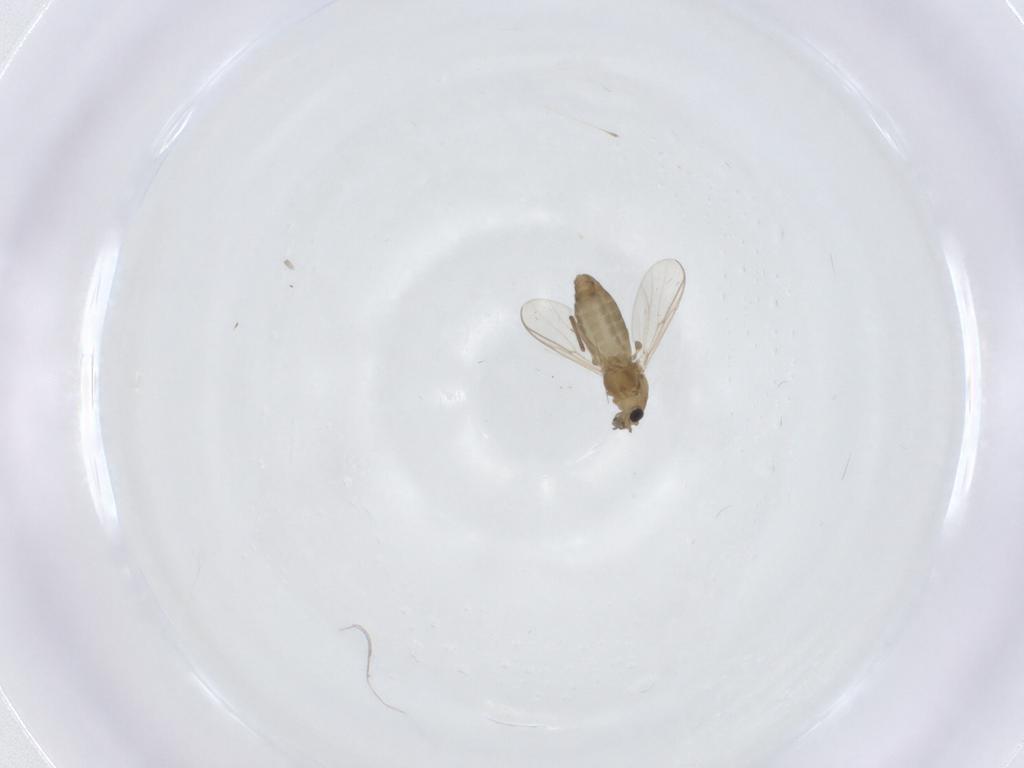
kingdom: Animalia
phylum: Arthropoda
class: Insecta
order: Diptera
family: Chironomidae
